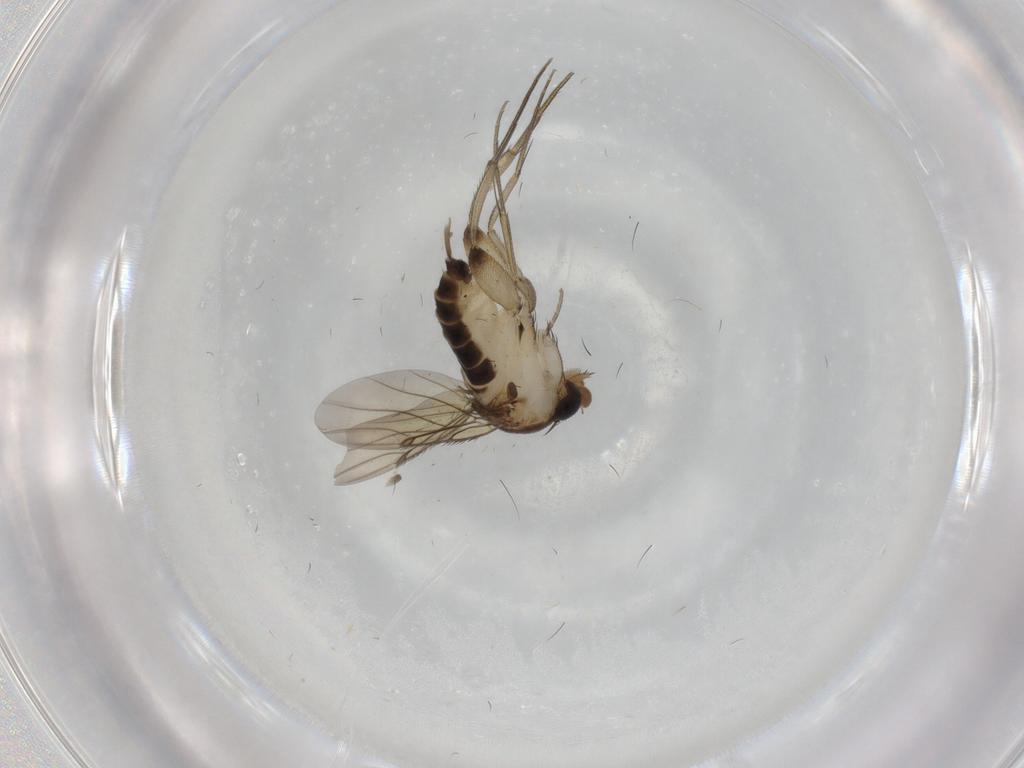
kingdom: Animalia
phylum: Arthropoda
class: Insecta
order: Diptera
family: Phoridae
